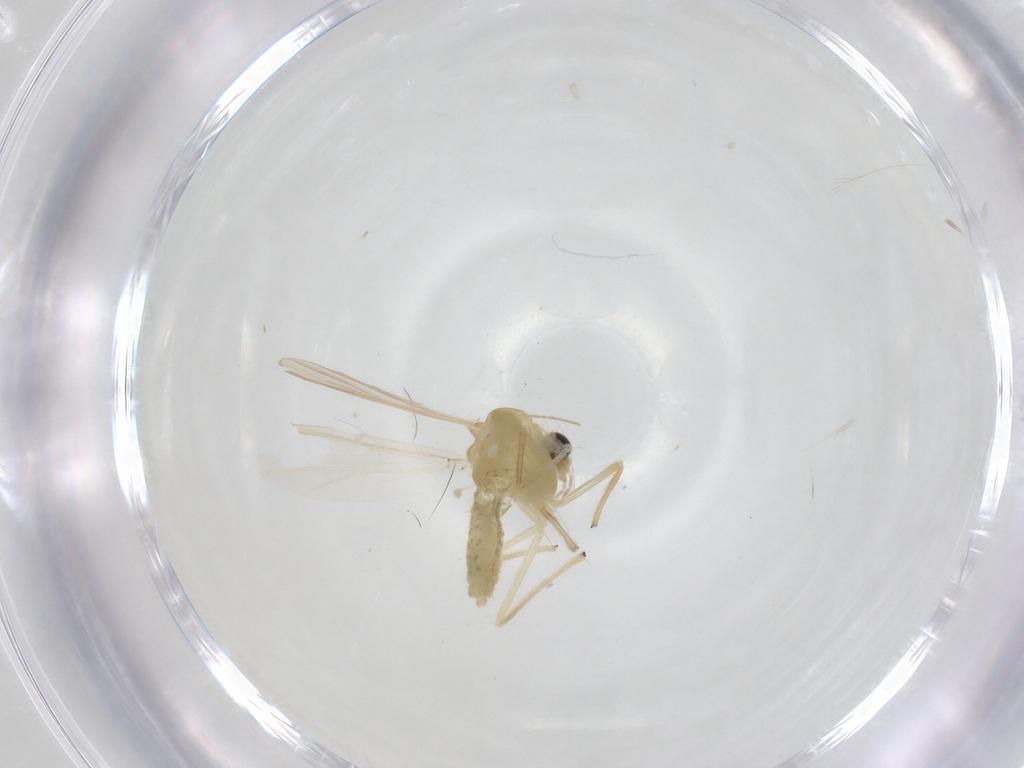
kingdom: Animalia
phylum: Arthropoda
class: Insecta
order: Diptera
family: Chironomidae
